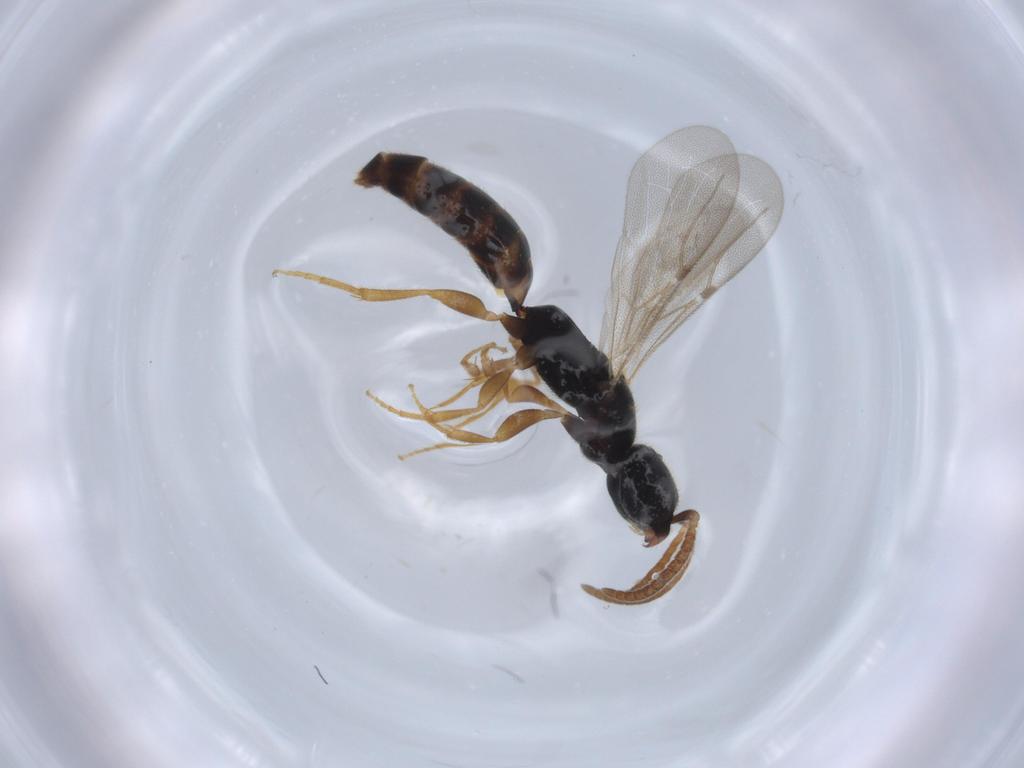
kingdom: Animalia
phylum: Arthropoda
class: Insecta
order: Hymenoptera
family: Bethylidae
